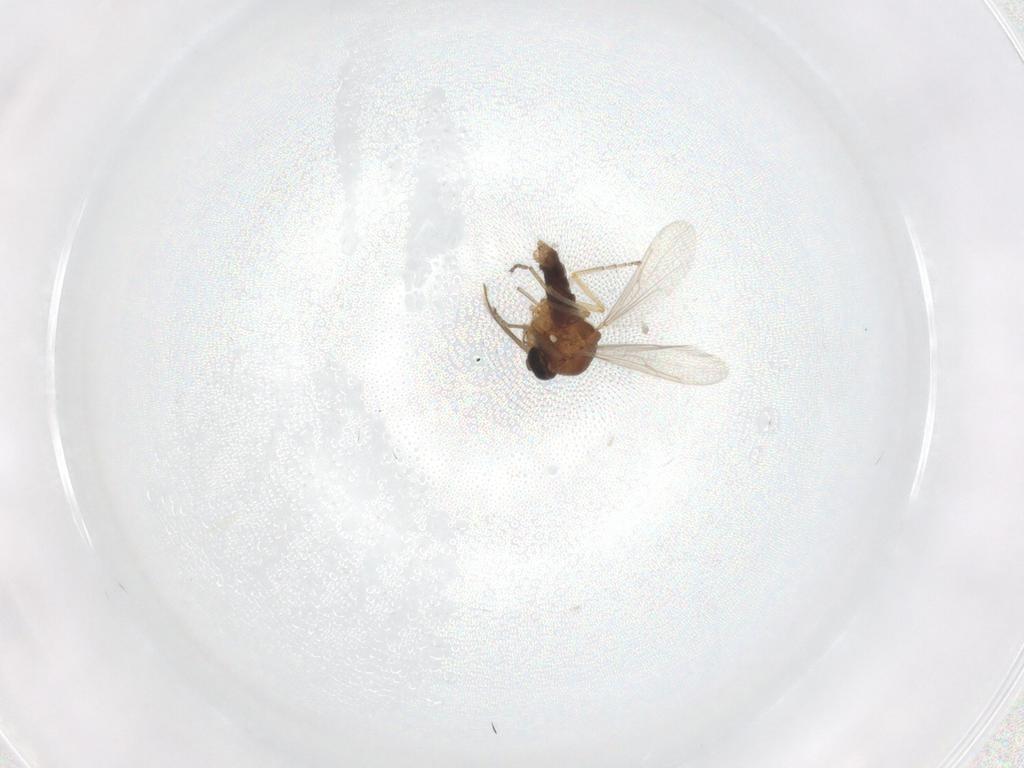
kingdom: Animalia
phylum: Arthropoda
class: Insecta
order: Diptera
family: Ceratopogonidae
